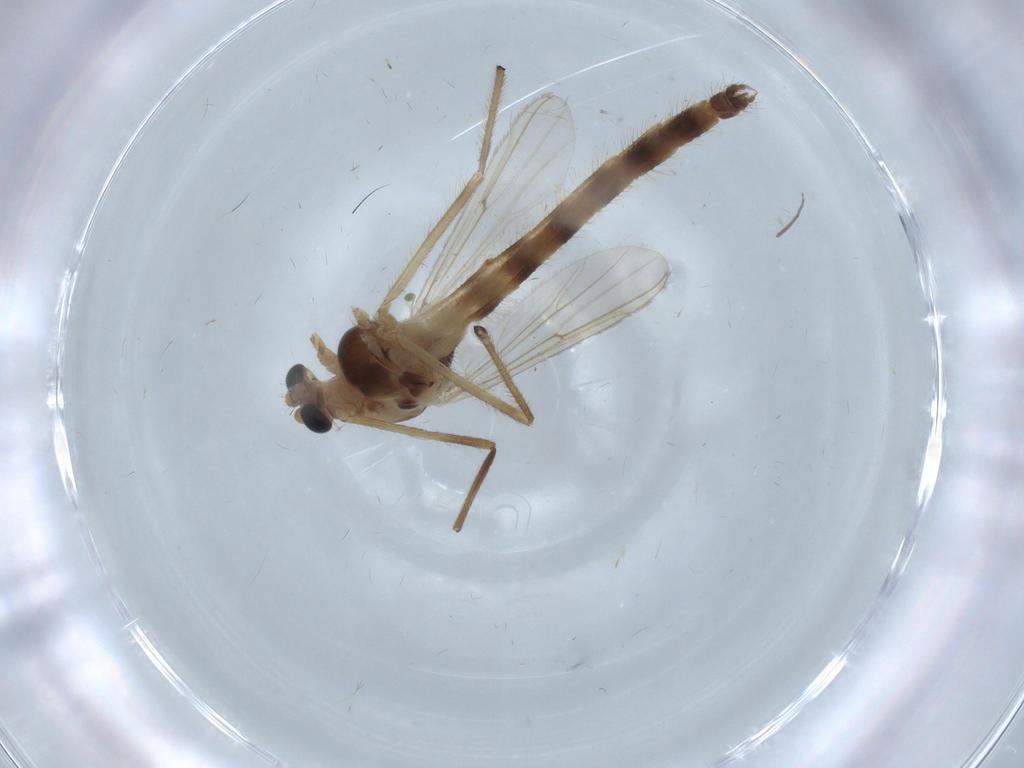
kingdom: Animalia
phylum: Arthropoda
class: Insecta
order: Diptera
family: Chironomidae
